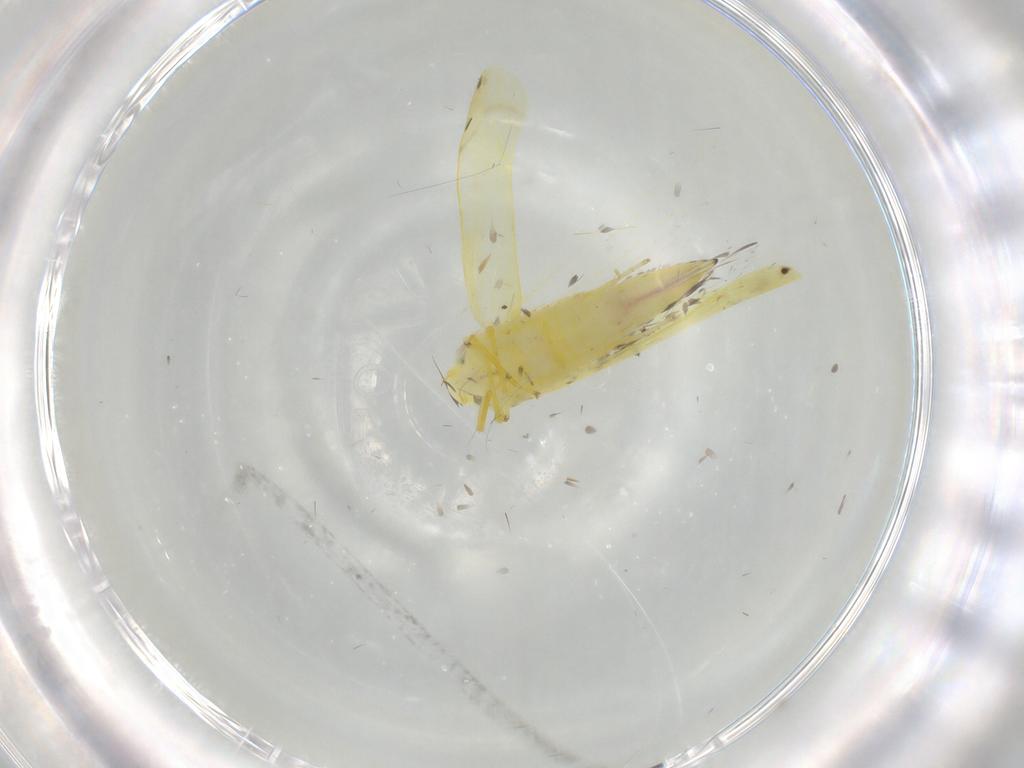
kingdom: Animalia
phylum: Arthropoda
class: Insecta
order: Hemiptera
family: Cicadellidae
